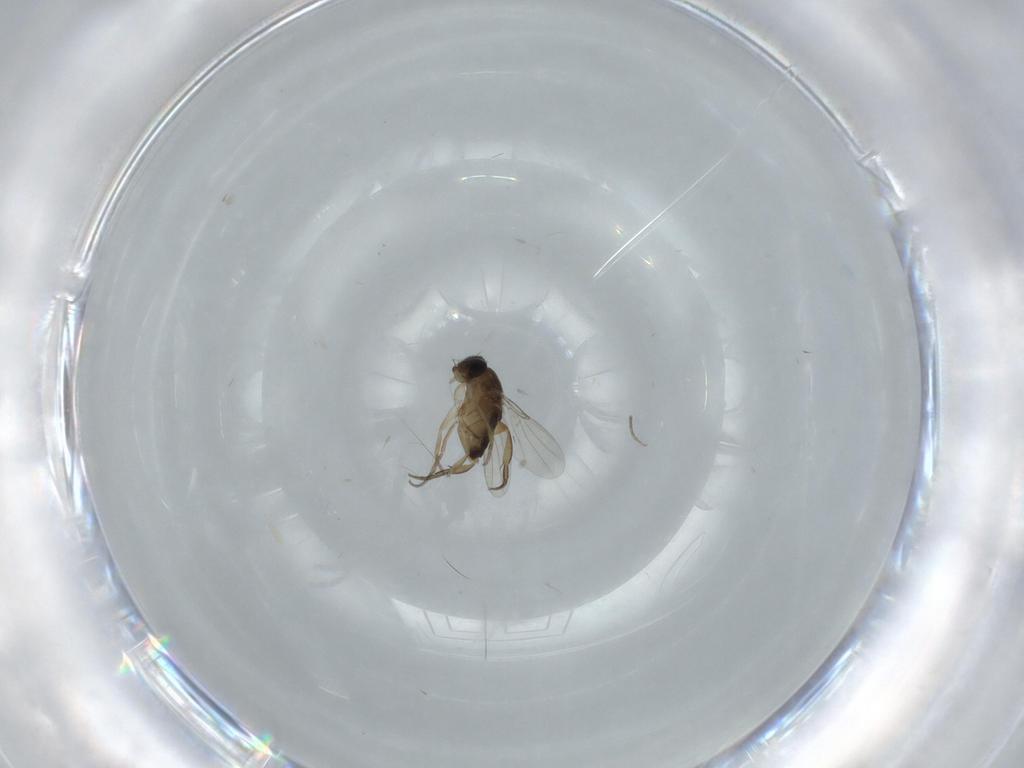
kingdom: Animalia
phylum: Arthropoda
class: Insecta
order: Diptera
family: Phoridae
